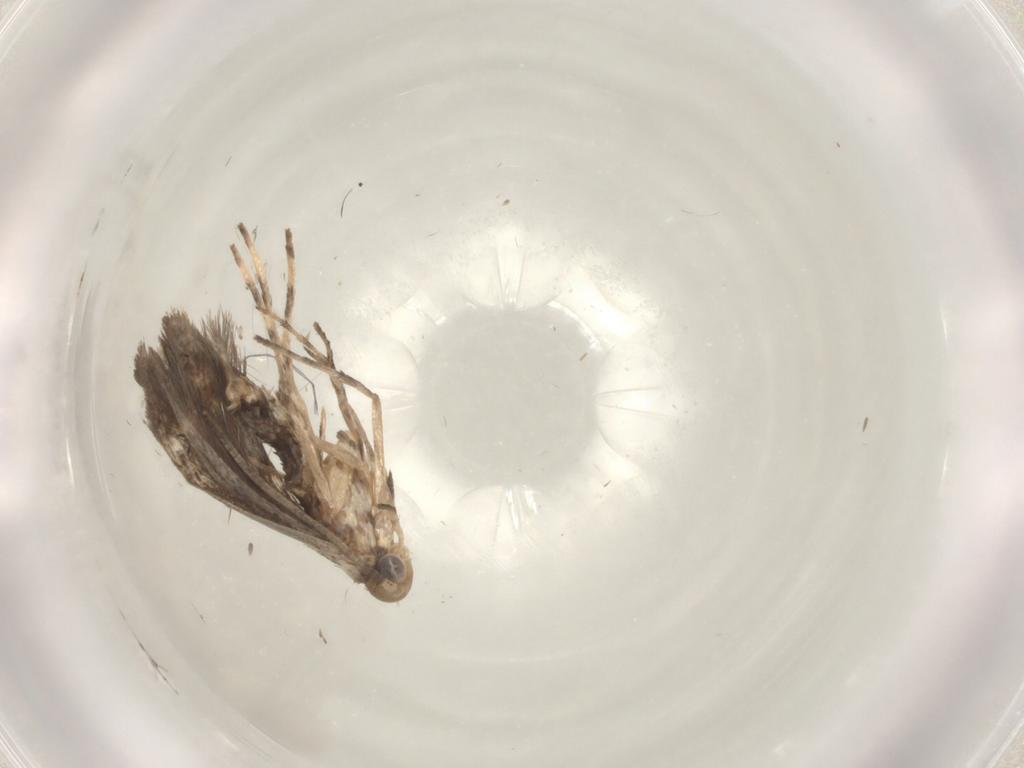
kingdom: Animalia
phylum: Arthropoda
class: Insecta
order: Lepidoptera
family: Gracillariidae
